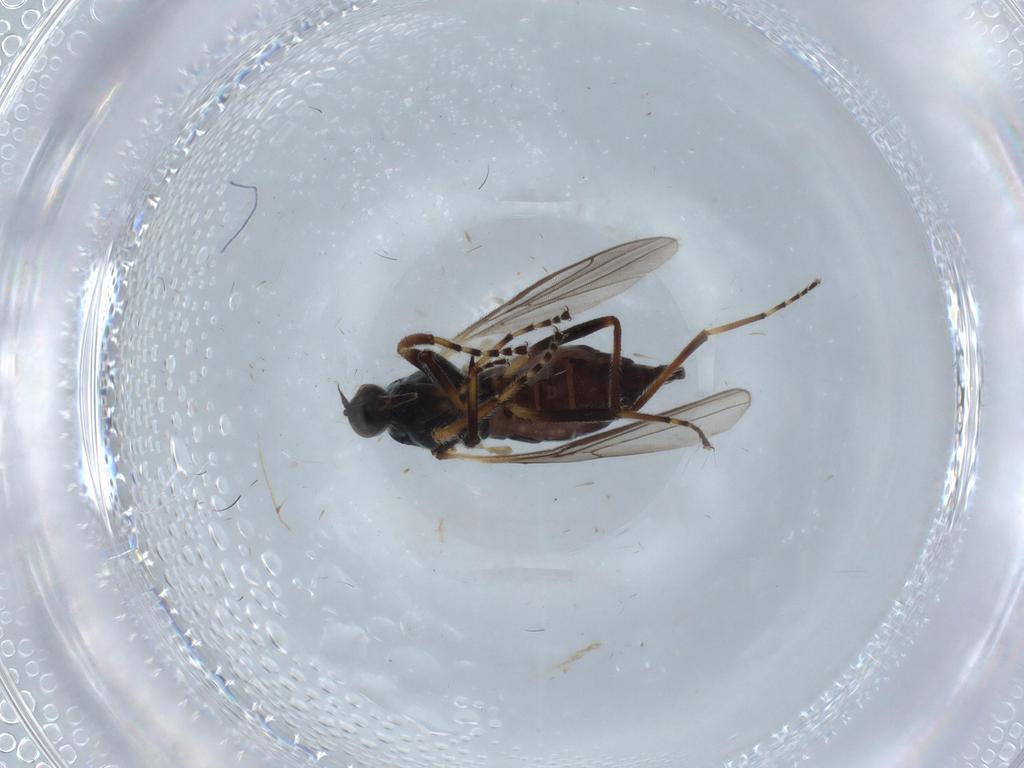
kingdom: Animalia
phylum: Arthropoda
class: Insecta
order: Diptera
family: Hybotidae
